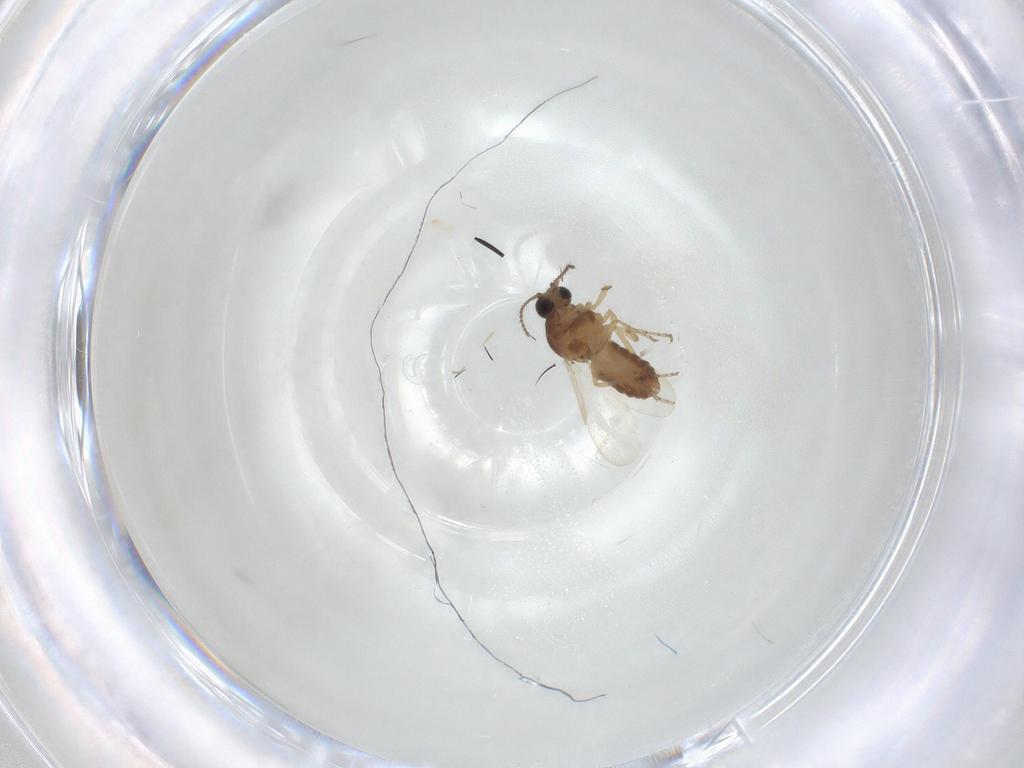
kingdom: Animalia
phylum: Arthropoda
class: Insecta
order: Diptera
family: Ceratopogonidae
